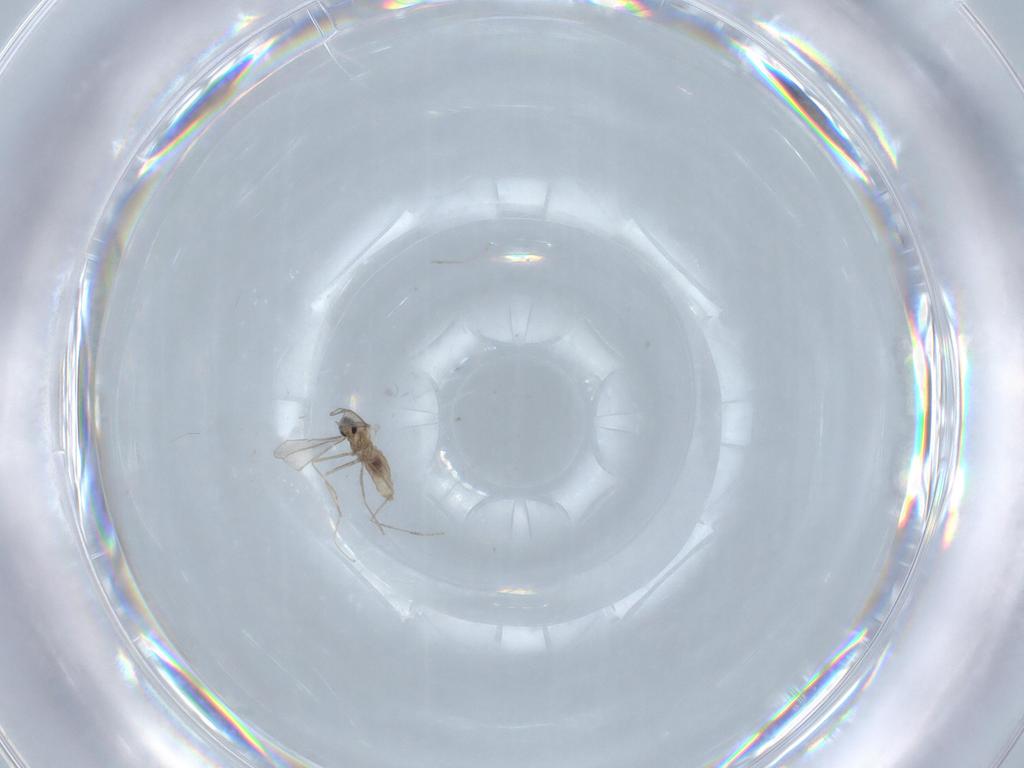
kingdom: Animalia
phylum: Arthropoda
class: Insecta
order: Diptera
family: Cecidomyiidae
